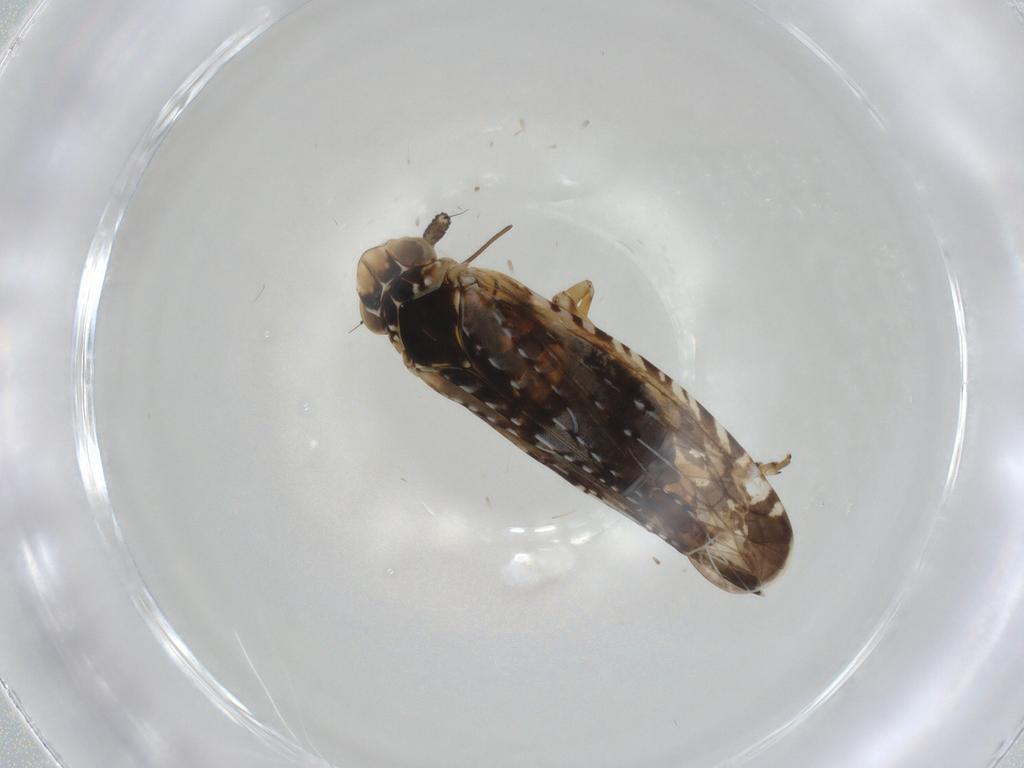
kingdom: Animalia
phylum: Arthropoda
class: Insecta
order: Hemiptera
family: Achilidae
